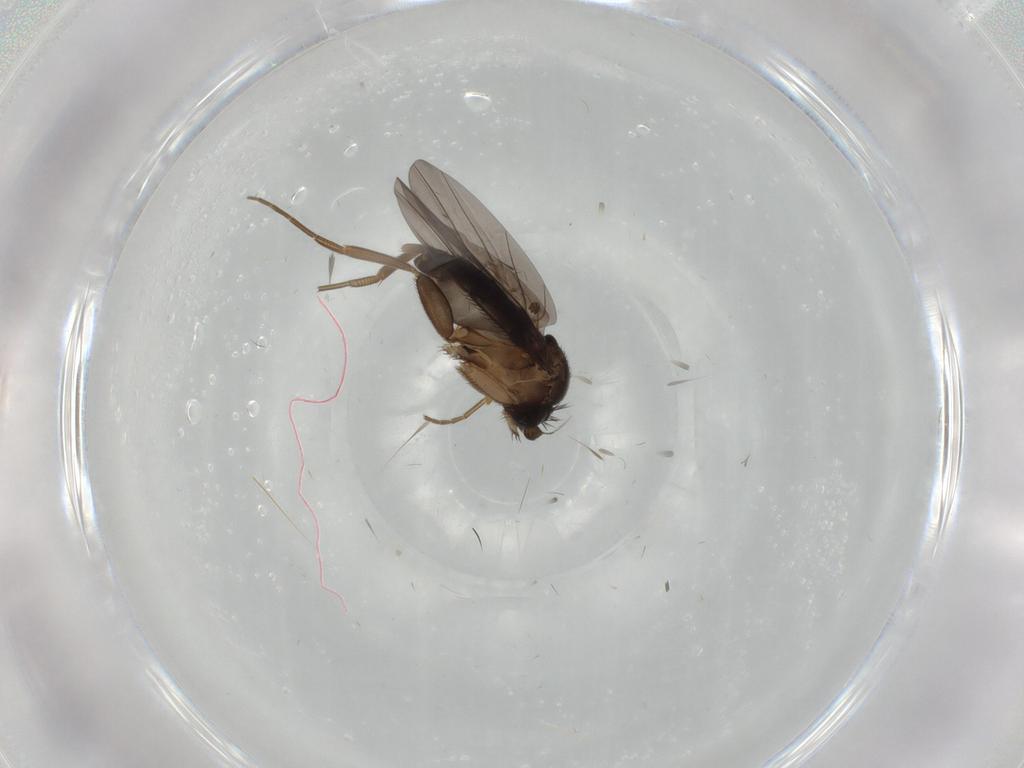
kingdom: Animalia
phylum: Arthropoda
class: Insecta
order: Diptera
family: Phoridae
